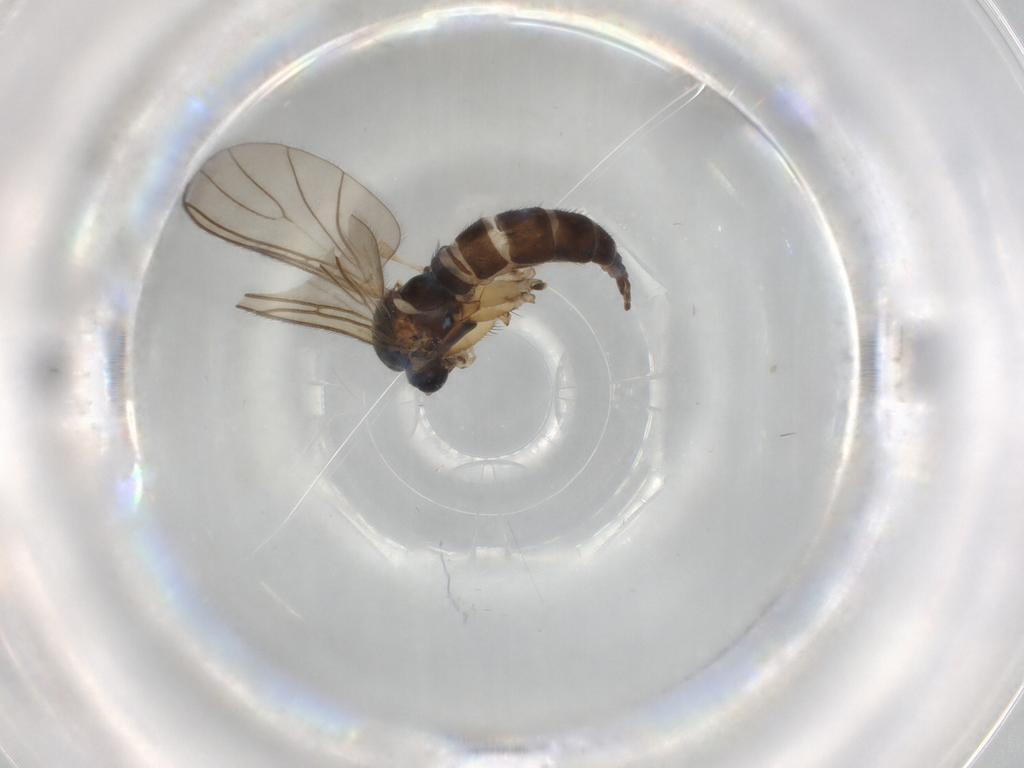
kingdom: Animalia
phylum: Arthropoda
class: Insecta
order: Diptera
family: Sciaridae
